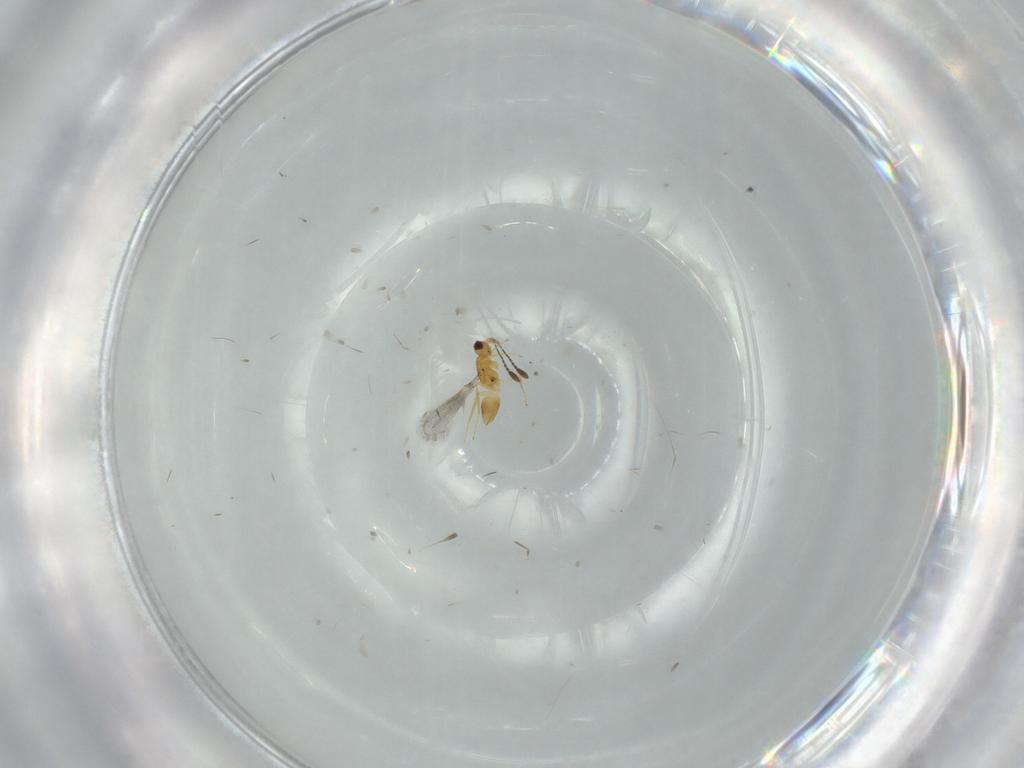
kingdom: Animalia
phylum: Arthropoda
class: Insecta
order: Hymenoptera
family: Mymaridae
